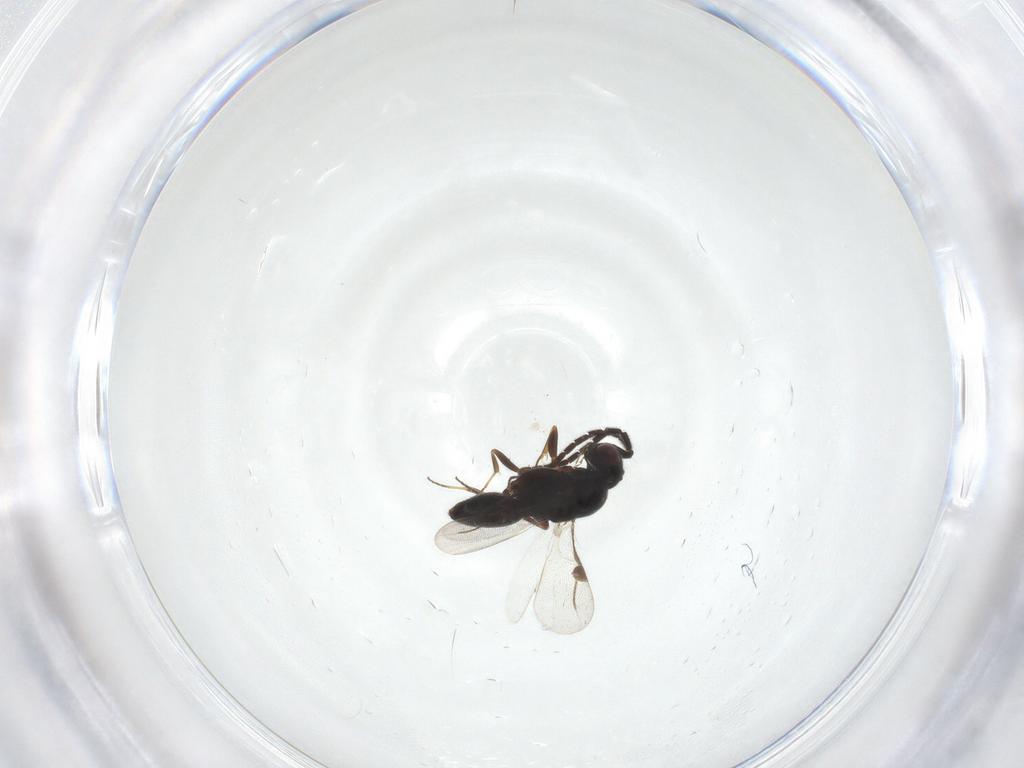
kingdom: Animalia
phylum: Arthropoda
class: Insecta
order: Hymenoptera
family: Megaspilidae
